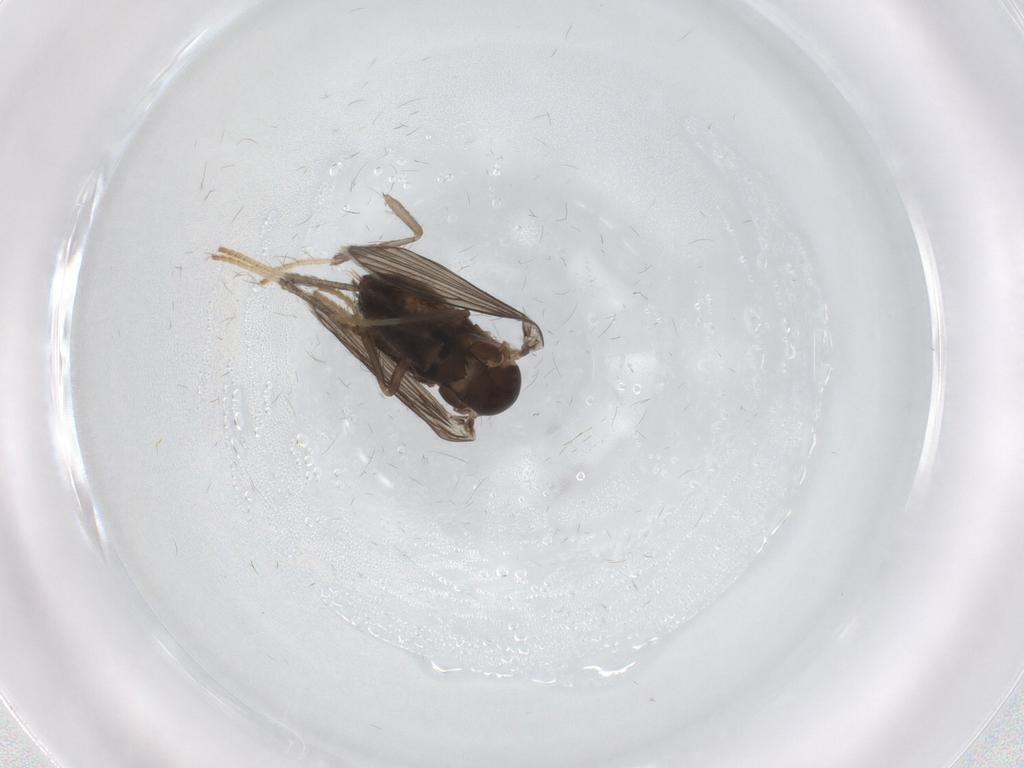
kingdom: Animalia
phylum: Arthropoda
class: Insecta
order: Diptera
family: Psychodidae
